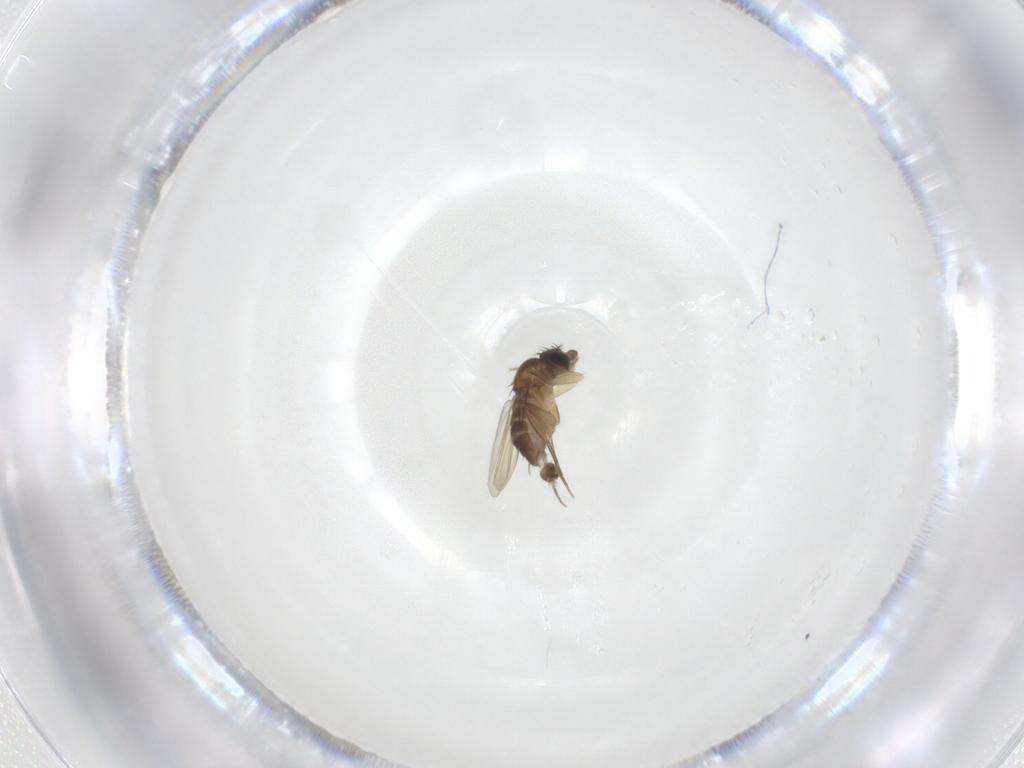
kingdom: Animalia
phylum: Arthropoda
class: Insecta
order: Diptera
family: Phoridae
